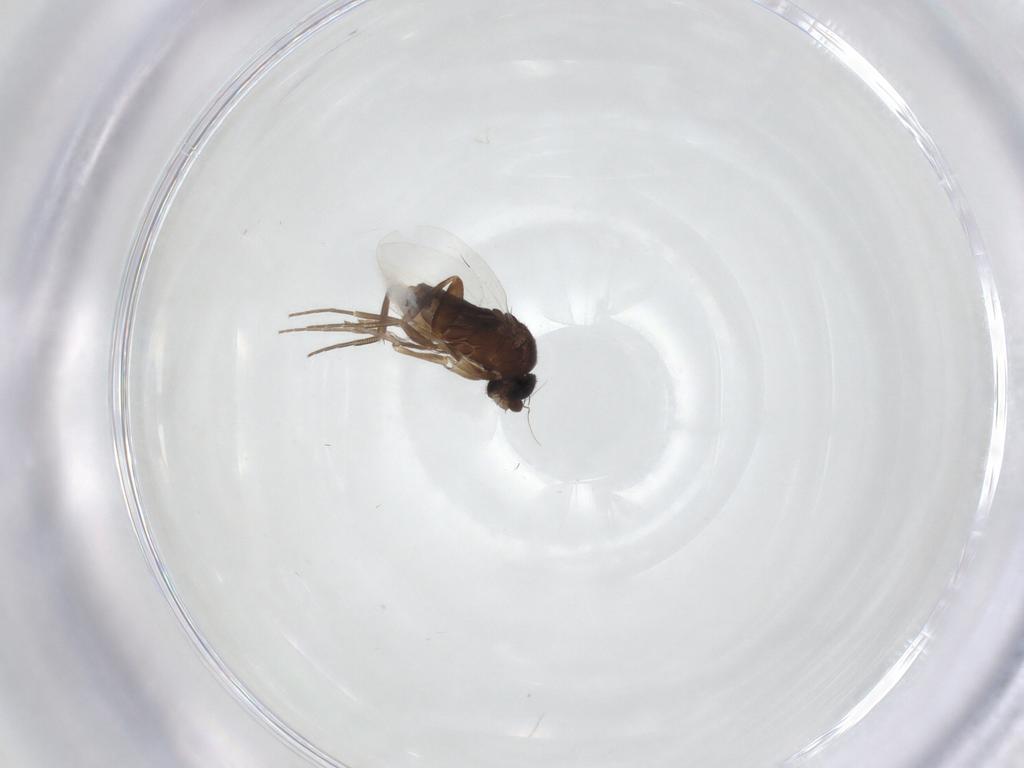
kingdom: Animalia
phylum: Arthropoda
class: Insecta
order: Diptera
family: Phoridae
